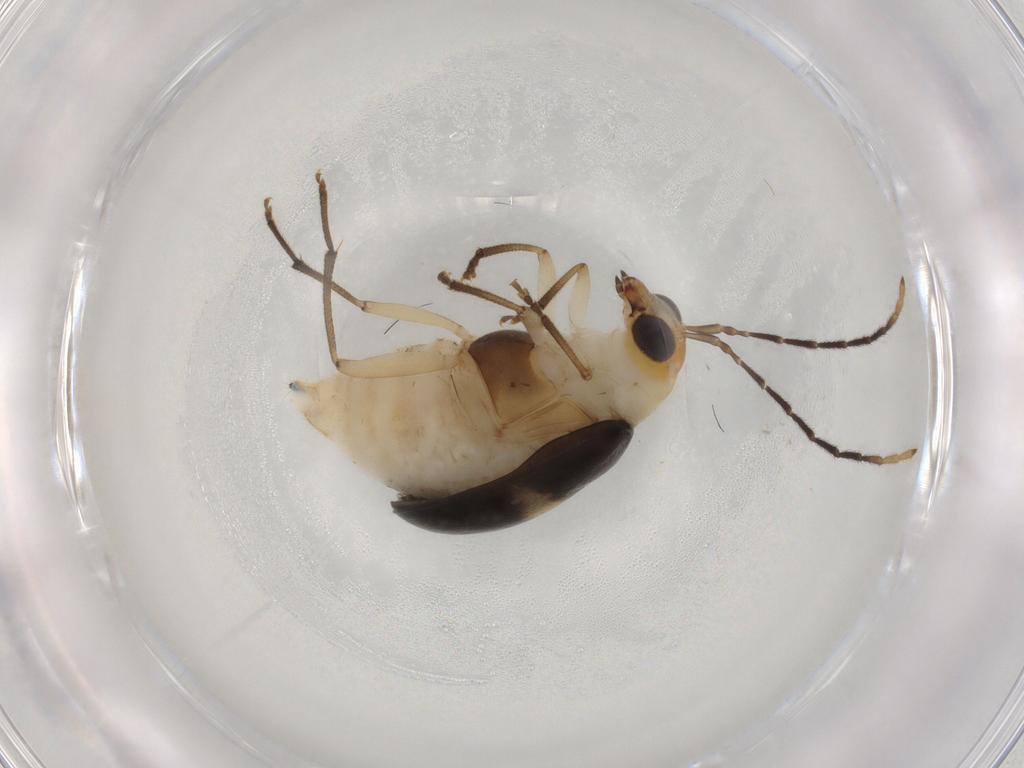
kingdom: Animalia
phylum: Arthropoda
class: Insecta
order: Coleoptera
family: Chrysomelidae
